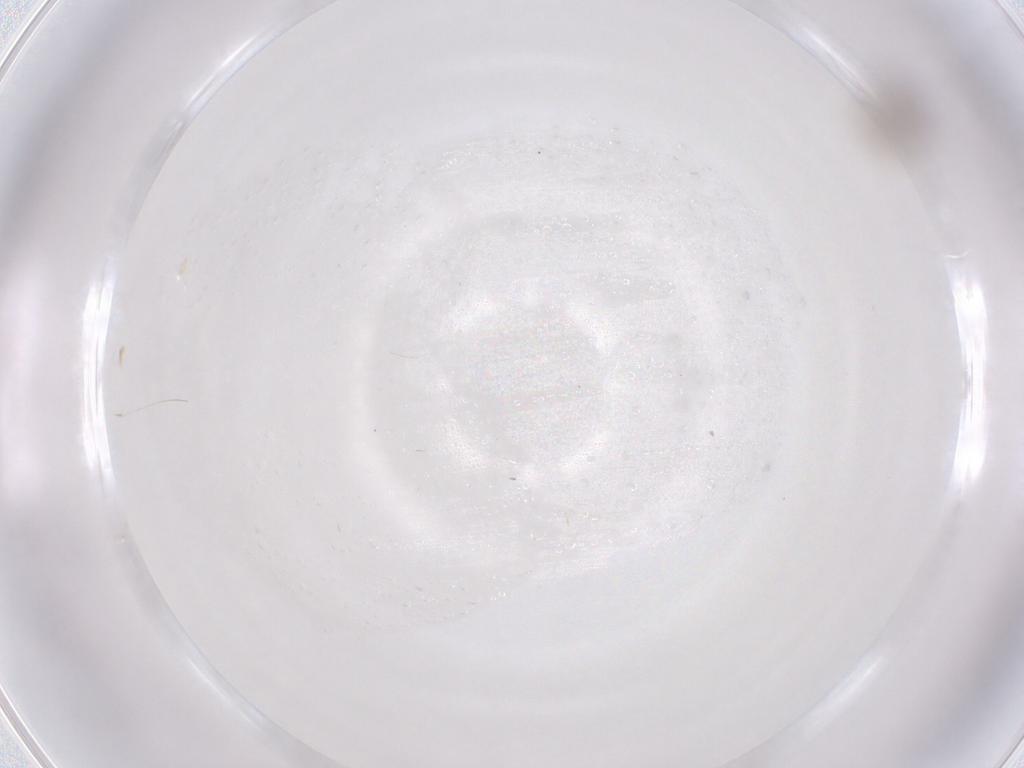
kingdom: Animalia
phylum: Arthropoda
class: Insecta
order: Diptera
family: Chironomidae
